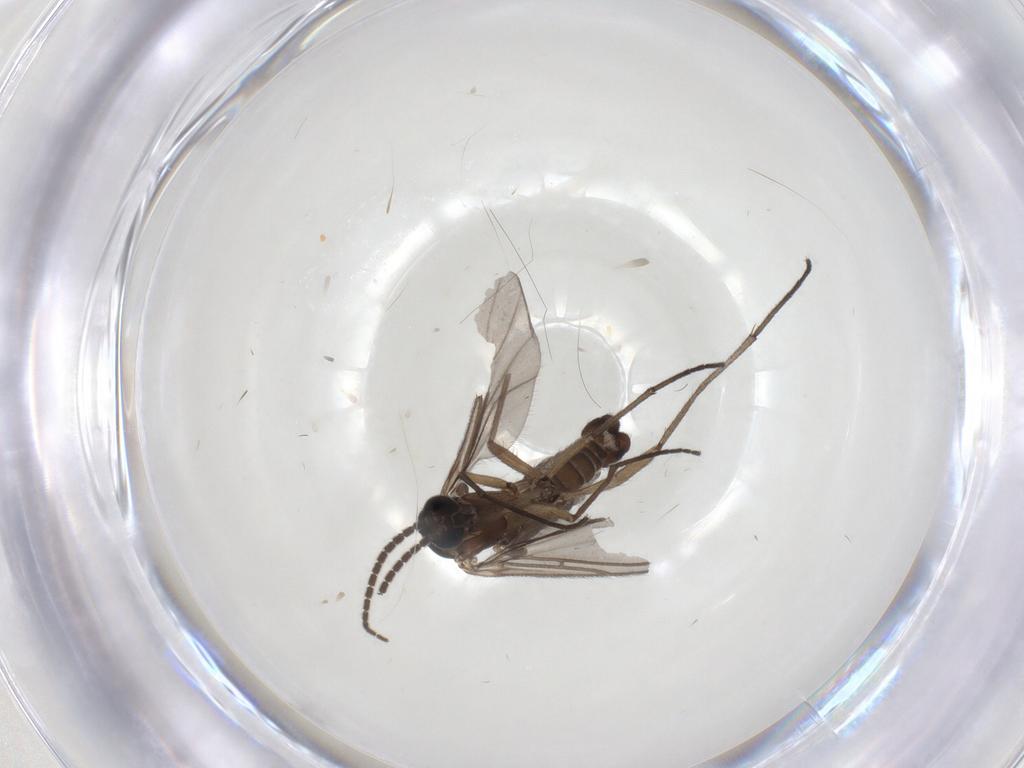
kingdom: Animalia
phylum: Arthropoda
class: Insecta
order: Diptera
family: Sciaridae
